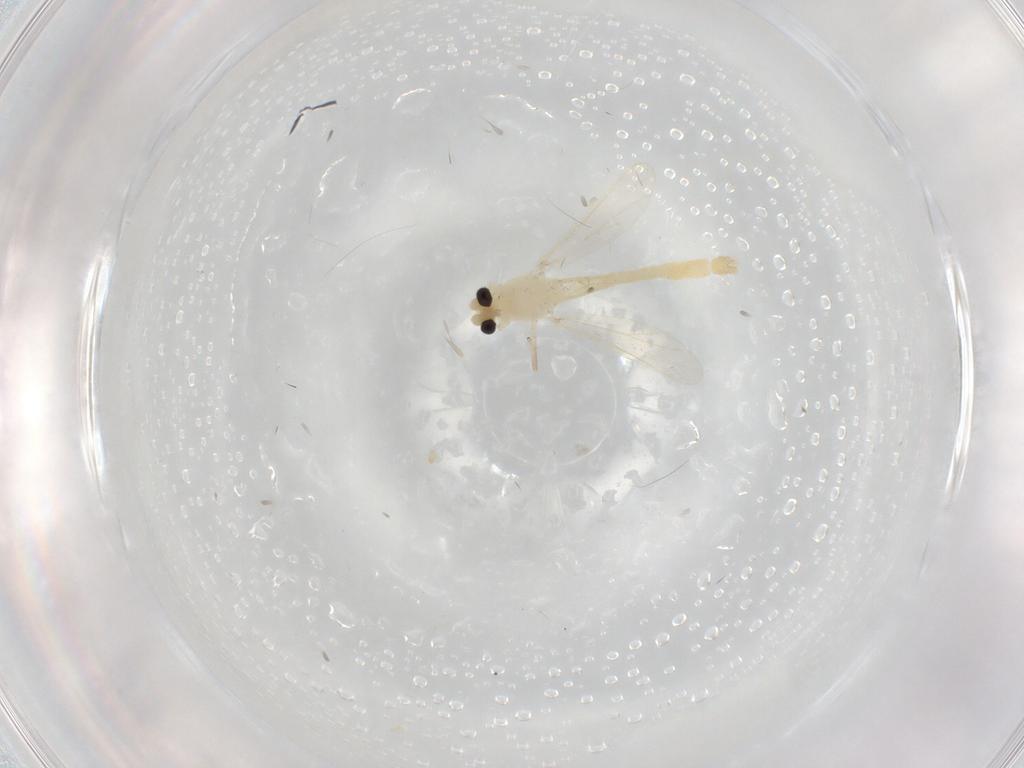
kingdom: Animalia
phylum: Arthropoda
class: Insecta
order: Diptera
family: Chironomidae
